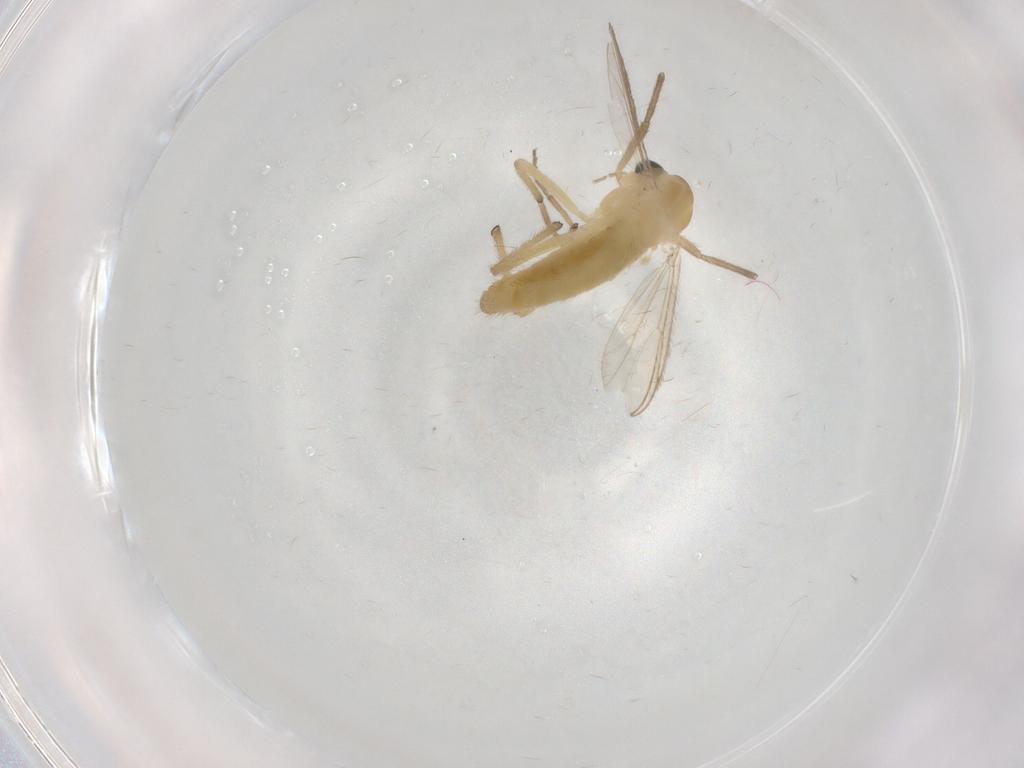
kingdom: Animalia
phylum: Arthropoda
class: Insecta
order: Diptera
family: Chironomidae
